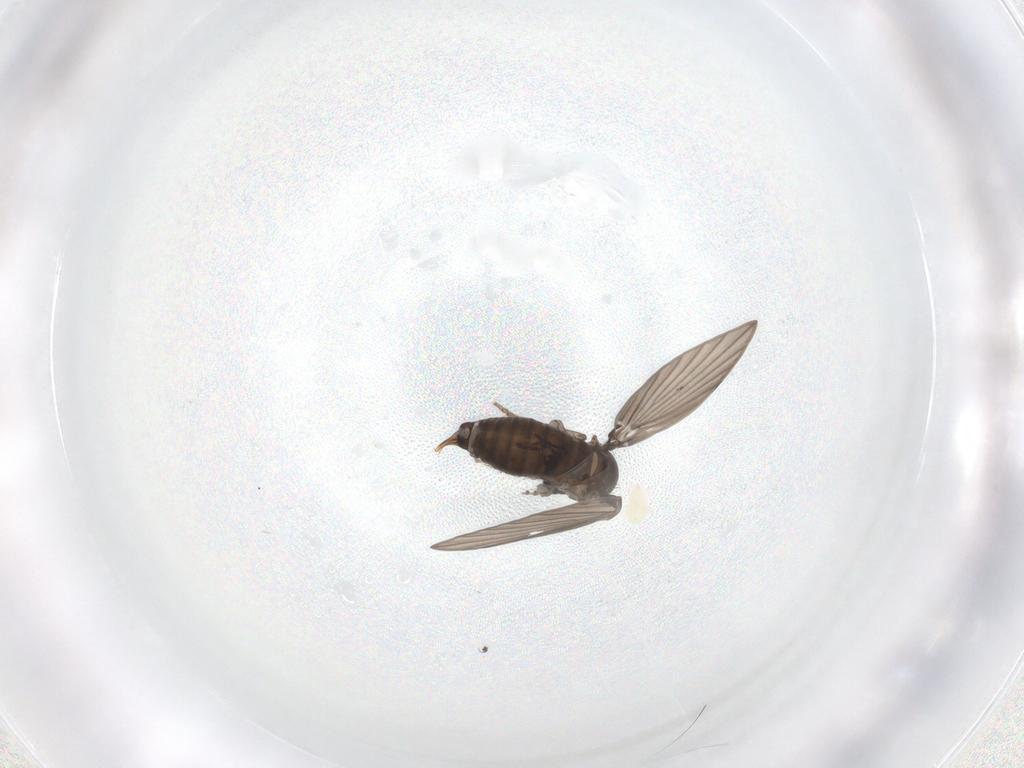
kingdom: Animalia
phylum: Arthropoda
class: Insecta
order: Diptera
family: Psychodidae
